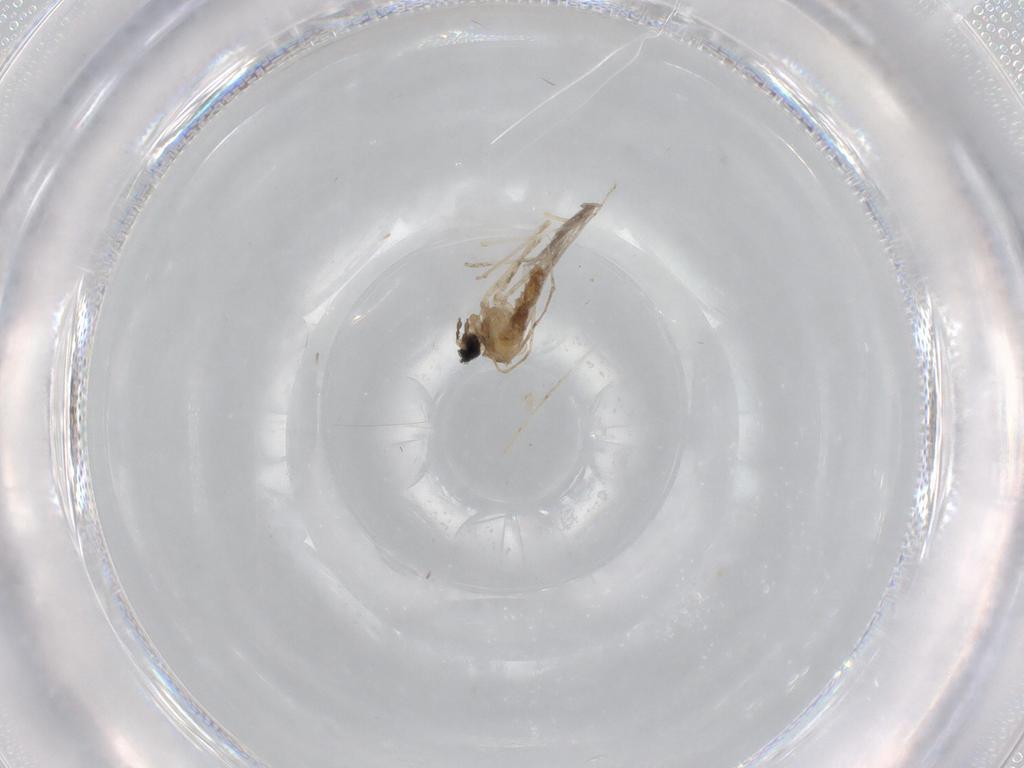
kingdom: Animalia
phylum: Arthropoda
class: Insecta
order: Diptera
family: Cecidomyiidae
